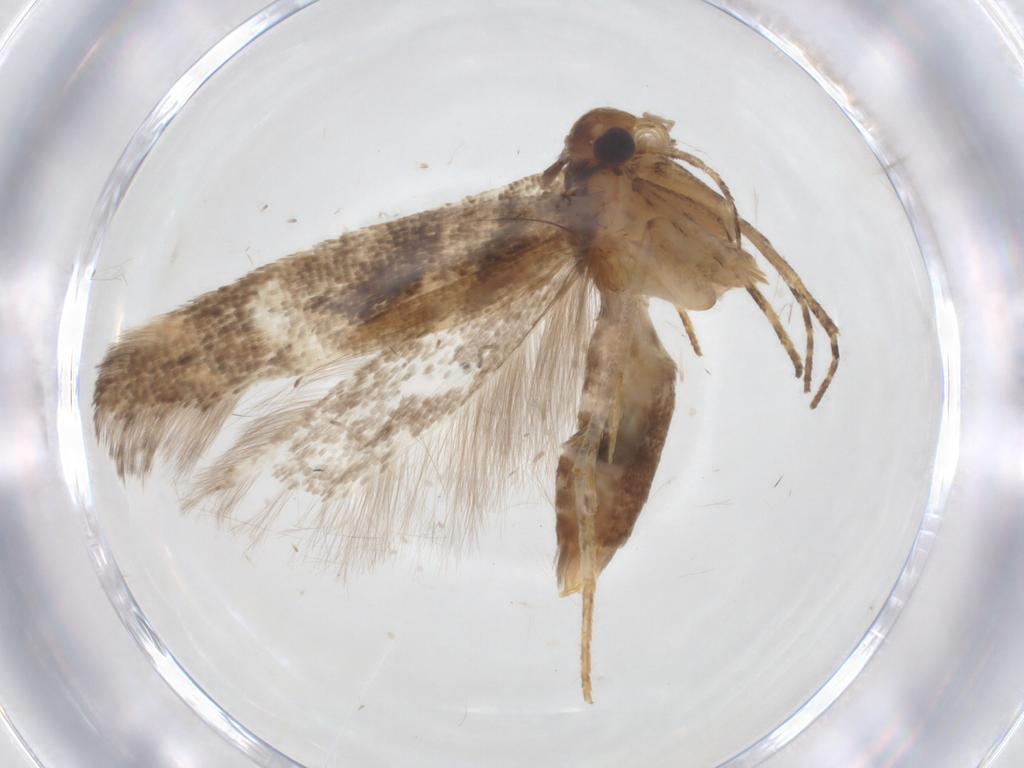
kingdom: Animalia
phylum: Arthropoda
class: Insecta
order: Lepidoptera
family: Gelechiidae
